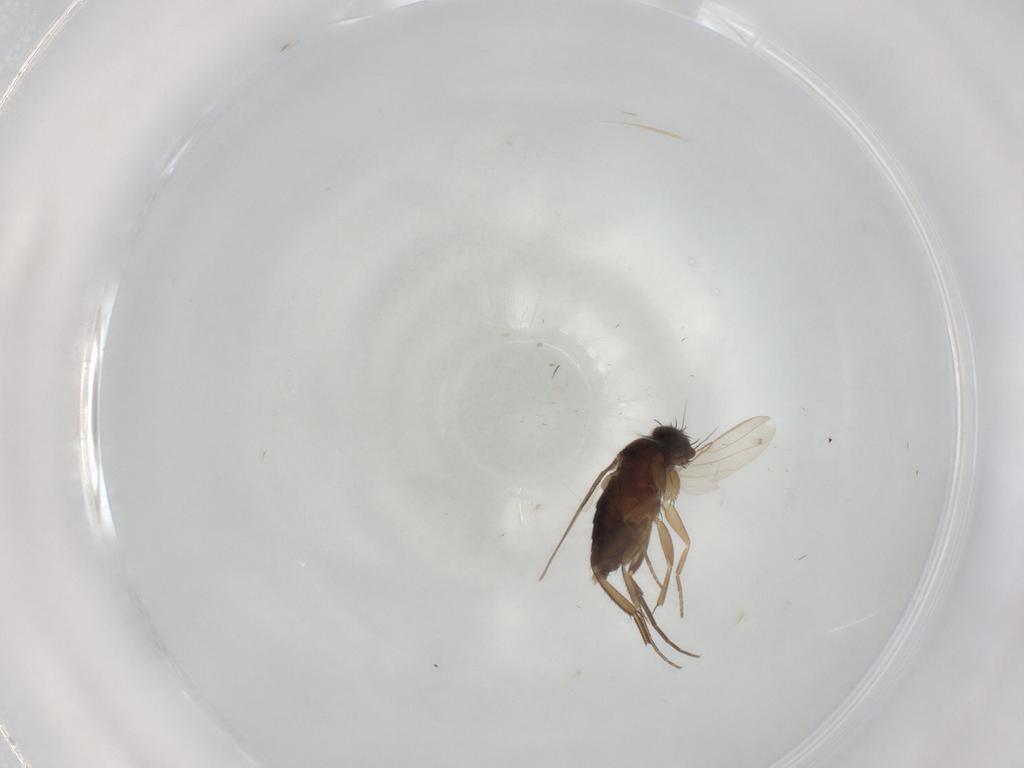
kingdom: Animalia
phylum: Arthropoda
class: Insecta
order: Diptera
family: Phoridae
